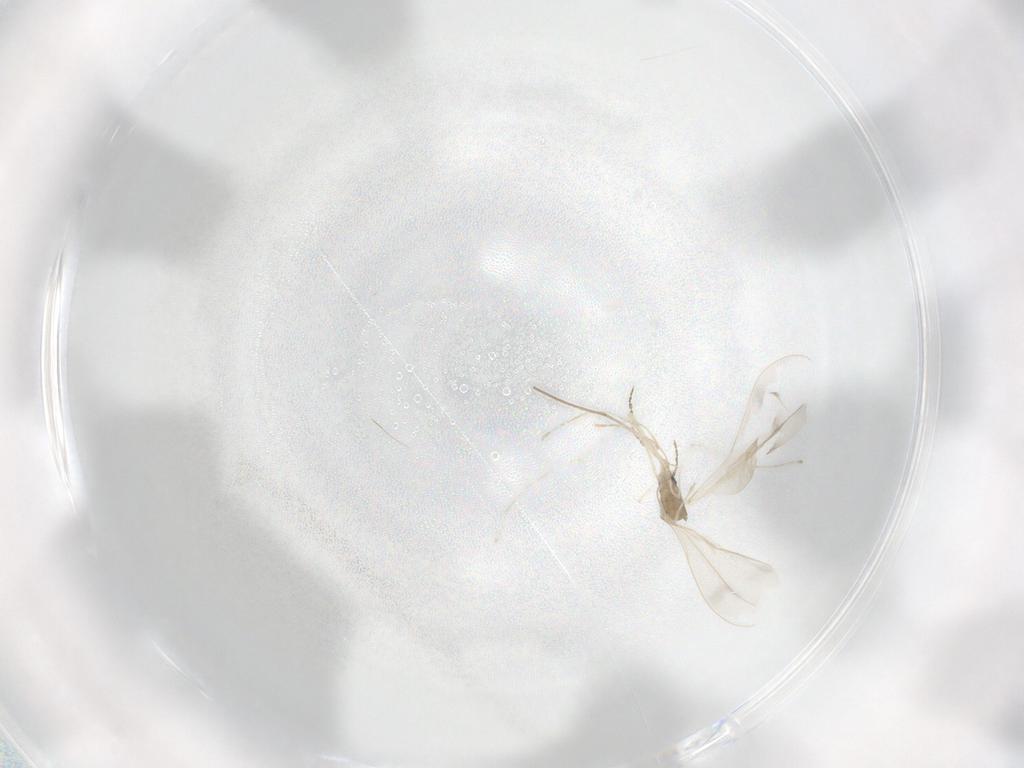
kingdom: Animalia
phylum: Arthropoda
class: Insecta
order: Diptera
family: Cecidomyiidae
